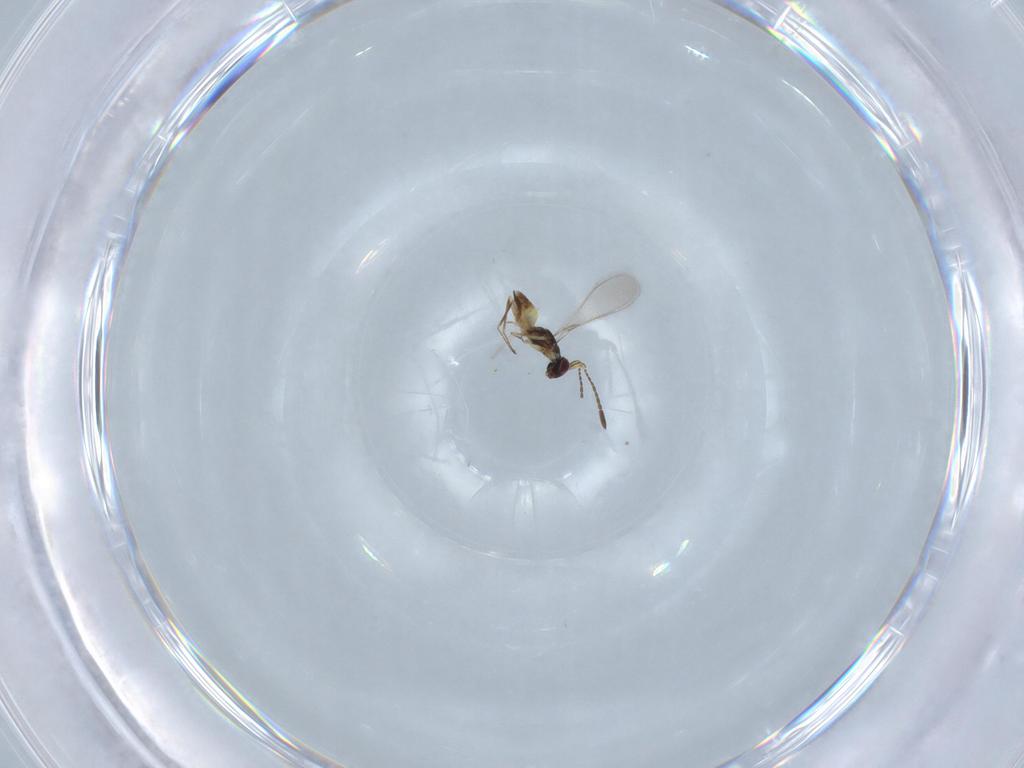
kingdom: Animalia
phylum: Arthropoda
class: Insecta
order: Hymenoptera
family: Mymaridae
